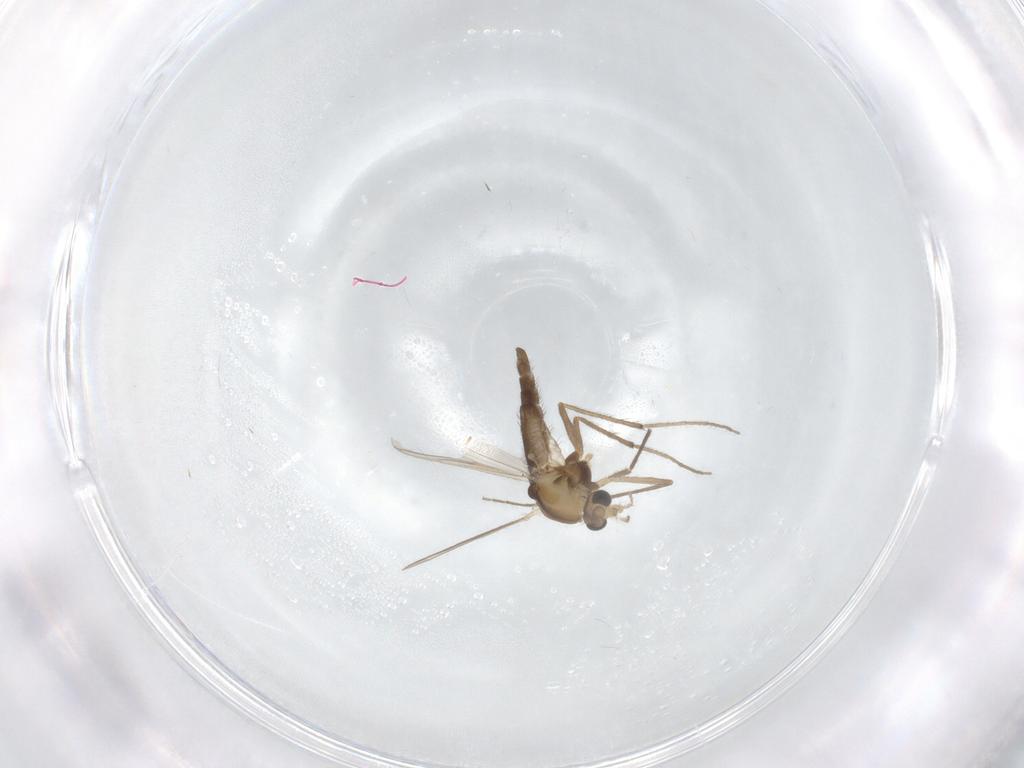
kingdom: Animalia
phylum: Arthropoda
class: Insecta
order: Diptera
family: Chironomidae
